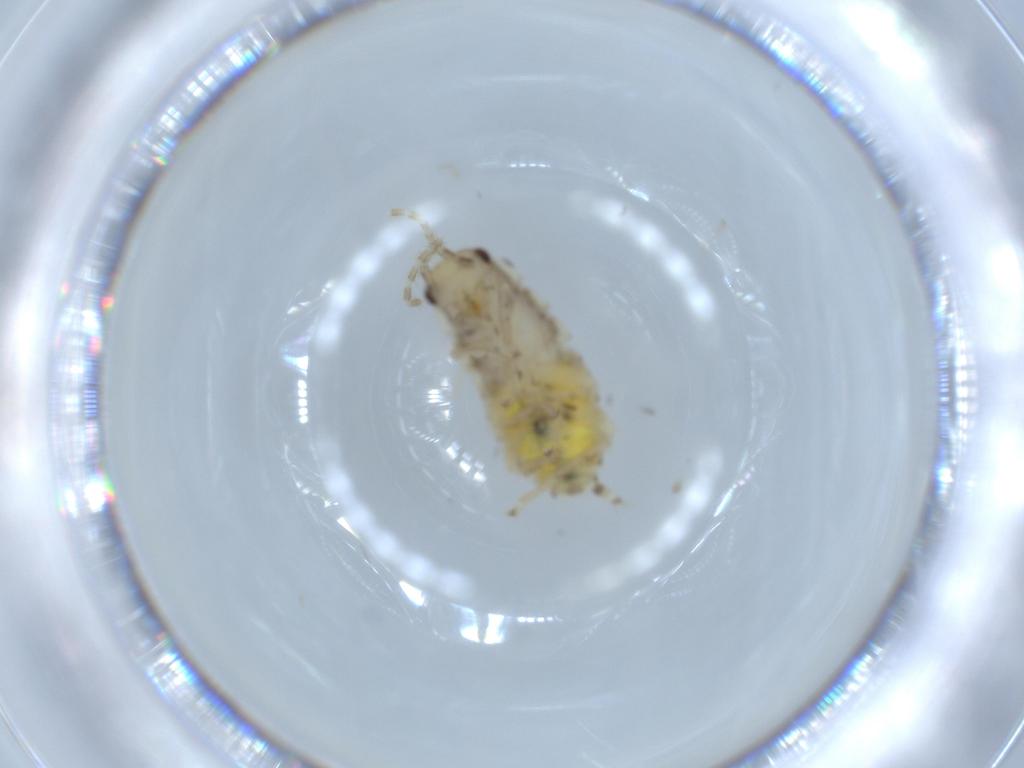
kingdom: Animalia
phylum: Arthropoda
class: Insecta
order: Blattodea
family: Ectobiidae
